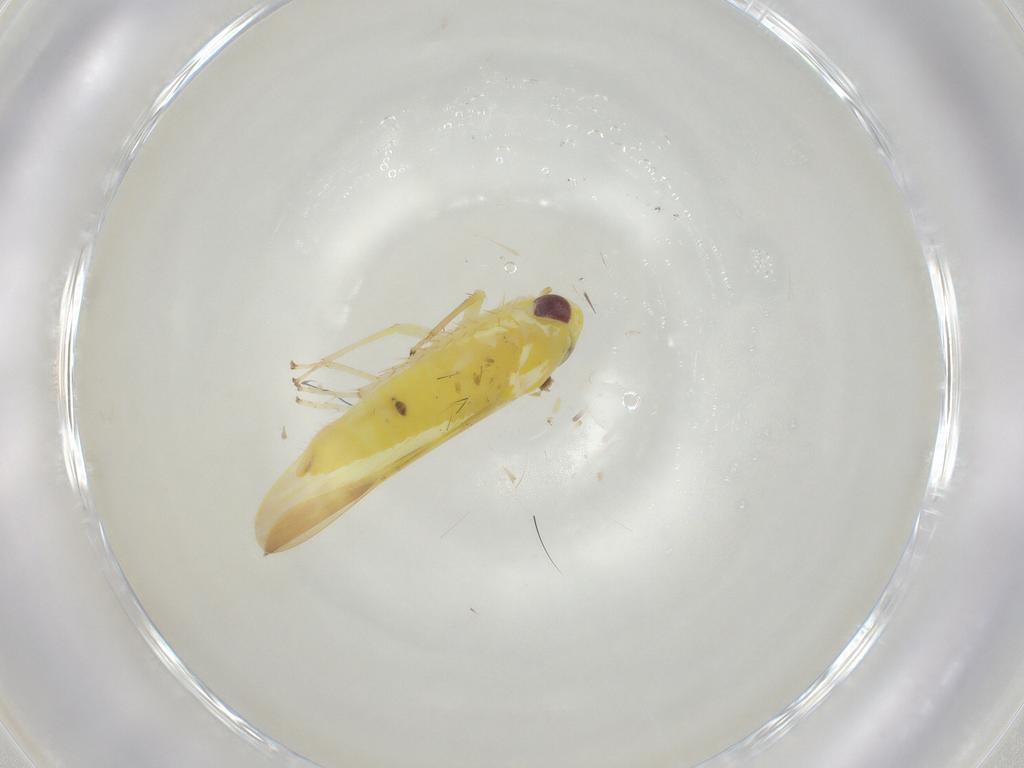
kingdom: Animalia
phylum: Arthropoda
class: Insecta
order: Hemiptera
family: Cicadellidae
